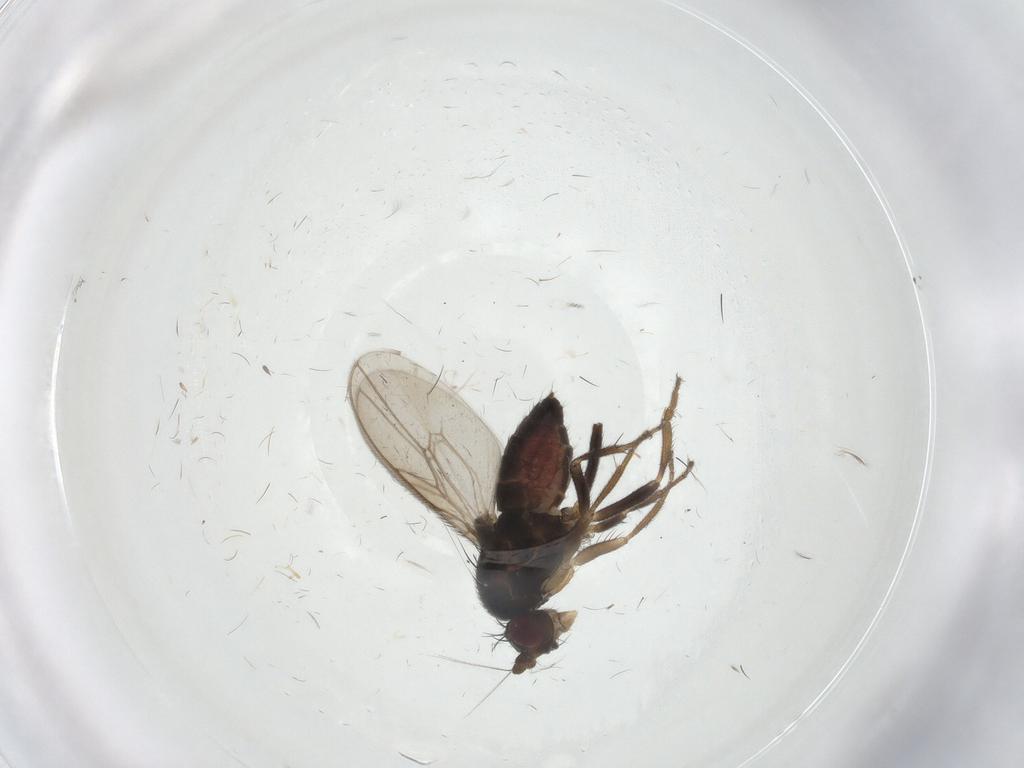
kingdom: Animalia
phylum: Arthropoda
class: Insecta
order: Diptera
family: Sphaeroceridae
